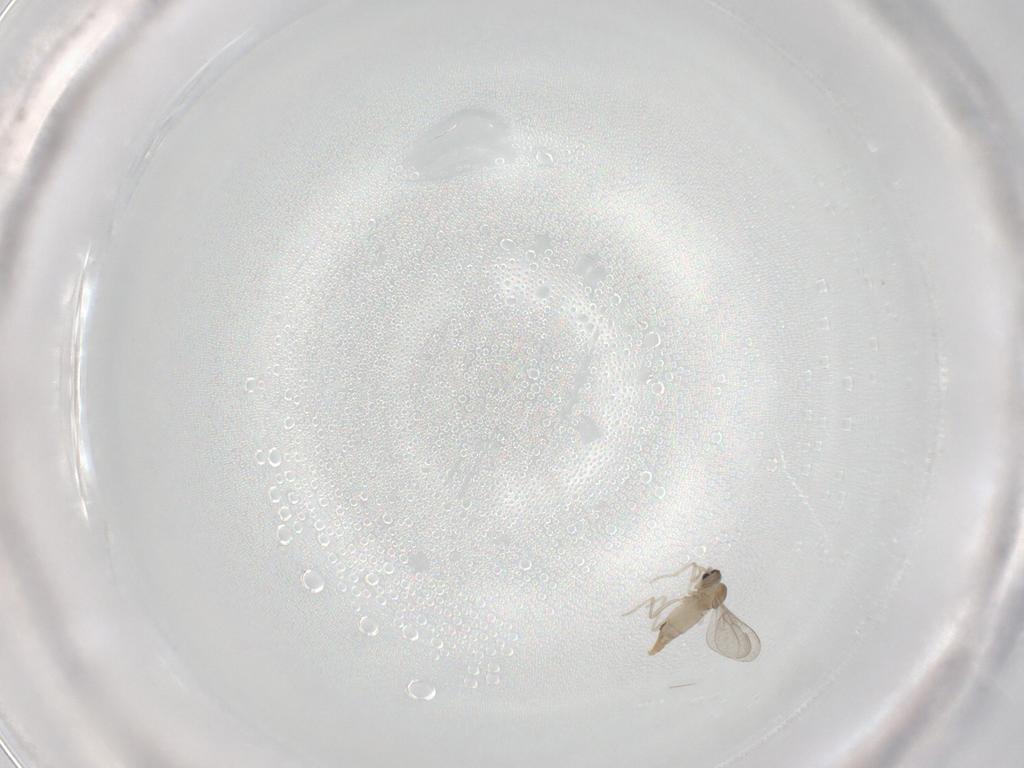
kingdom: Animalia
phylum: Arthropoda
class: Insecta
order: Diptera
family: Cecidomyiidae
